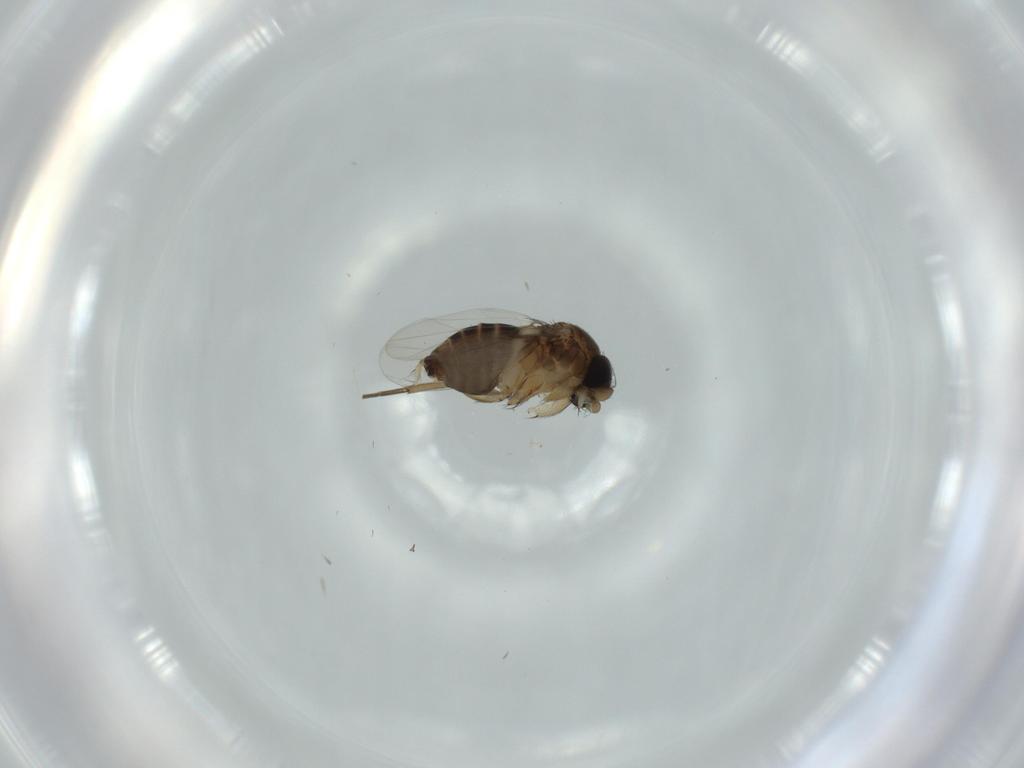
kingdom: Animalia
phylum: Arthropoda
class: Insecta
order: Diptera
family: Phoridae
